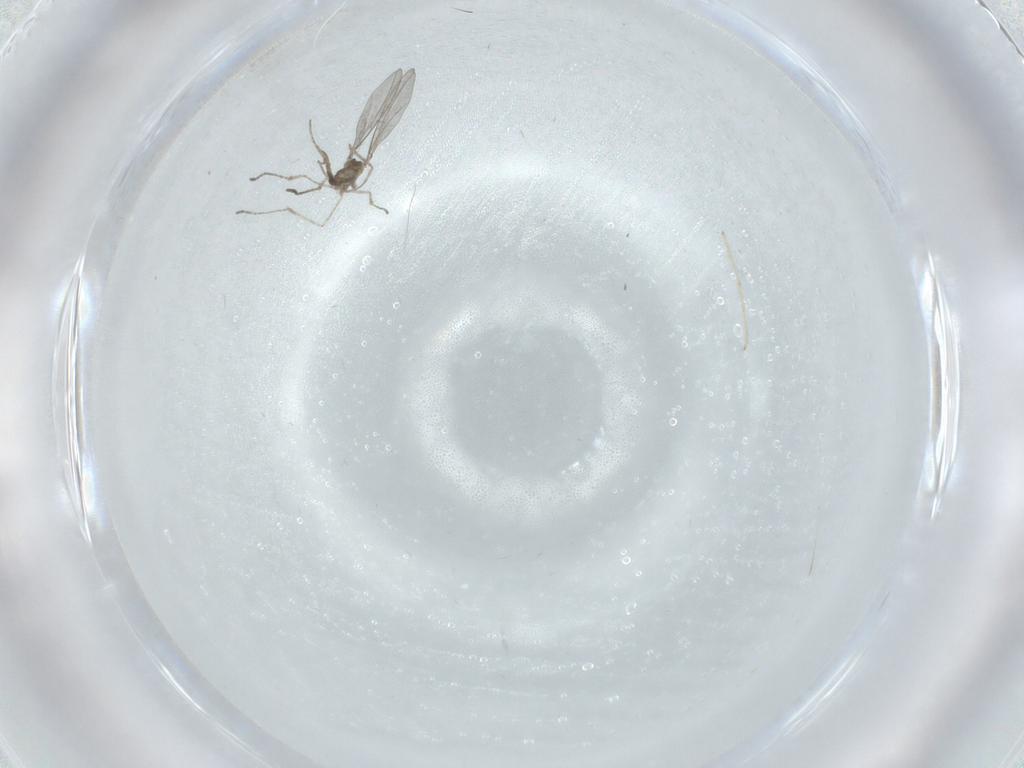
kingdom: Animalia
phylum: Arthropoda
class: Insecta
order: Diptera
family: Cecidomyiidae
